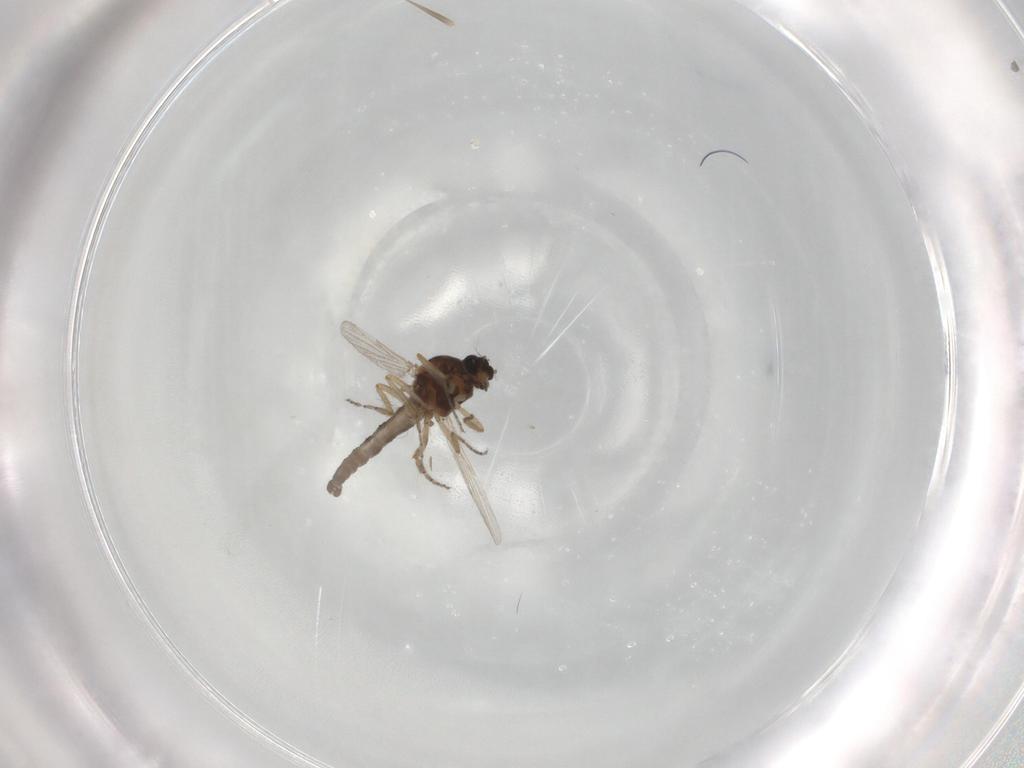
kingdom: Animalia
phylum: Arthropoda
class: Insecta
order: Diptera
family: Ceratopogonidae
